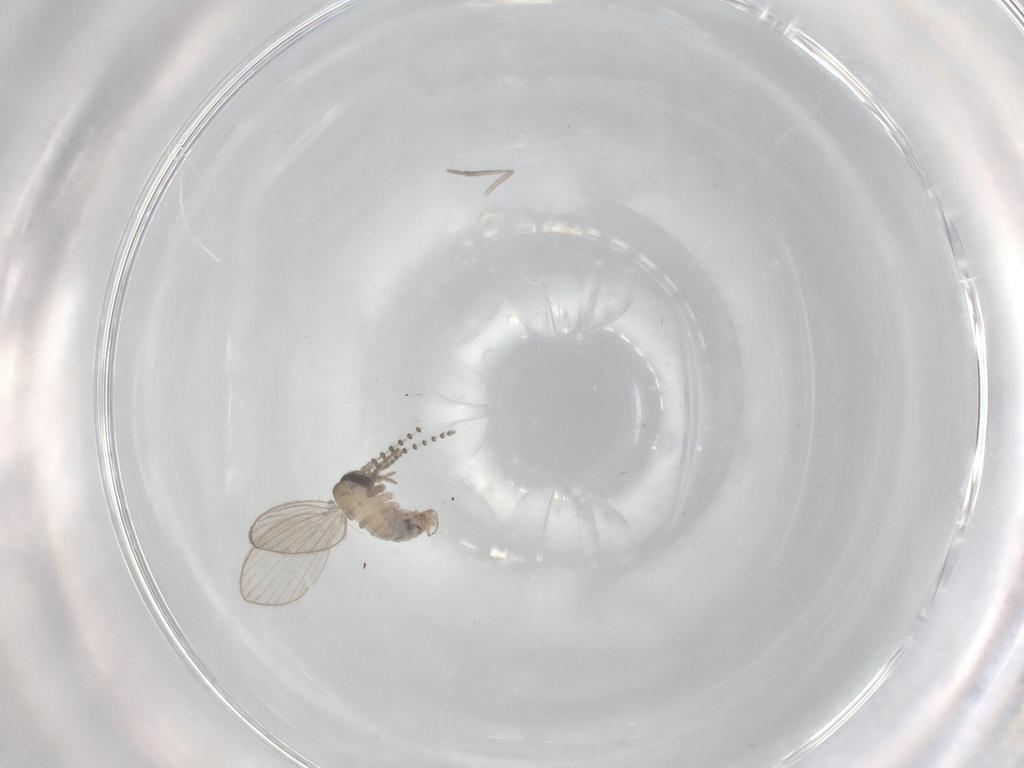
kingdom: Animalia
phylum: Arthropoda
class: Insecta
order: Diptera
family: Psychodidae
